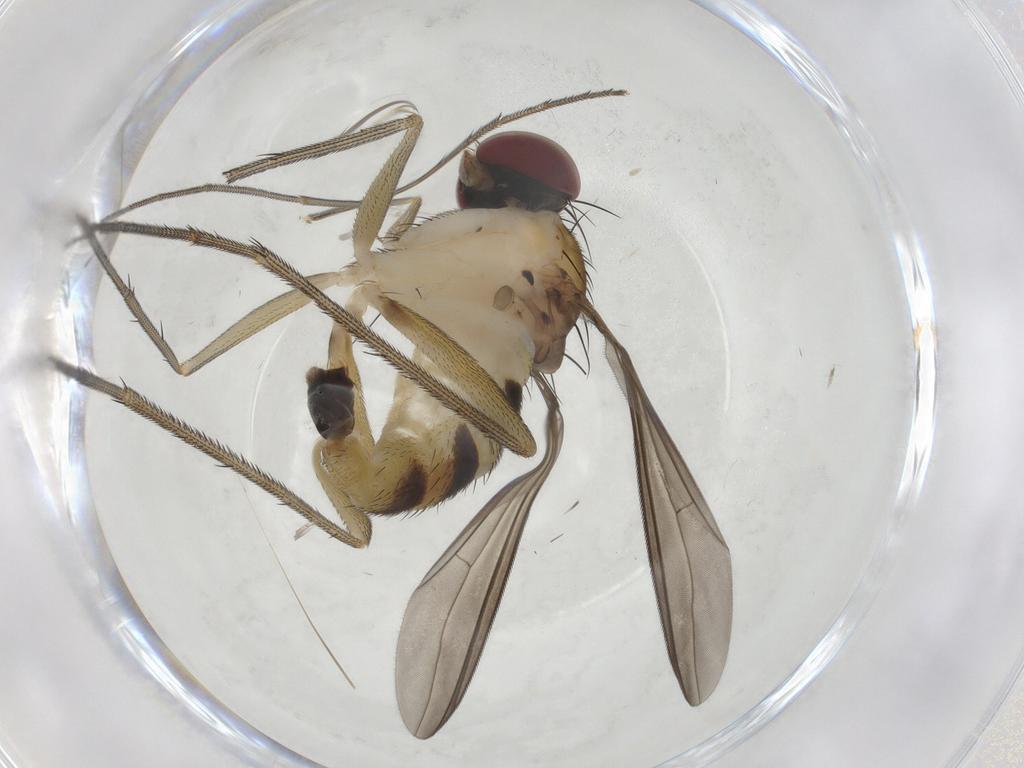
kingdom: Animalia
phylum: Arthropoda
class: Insecta
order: Diptera
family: Dolichopodidae
